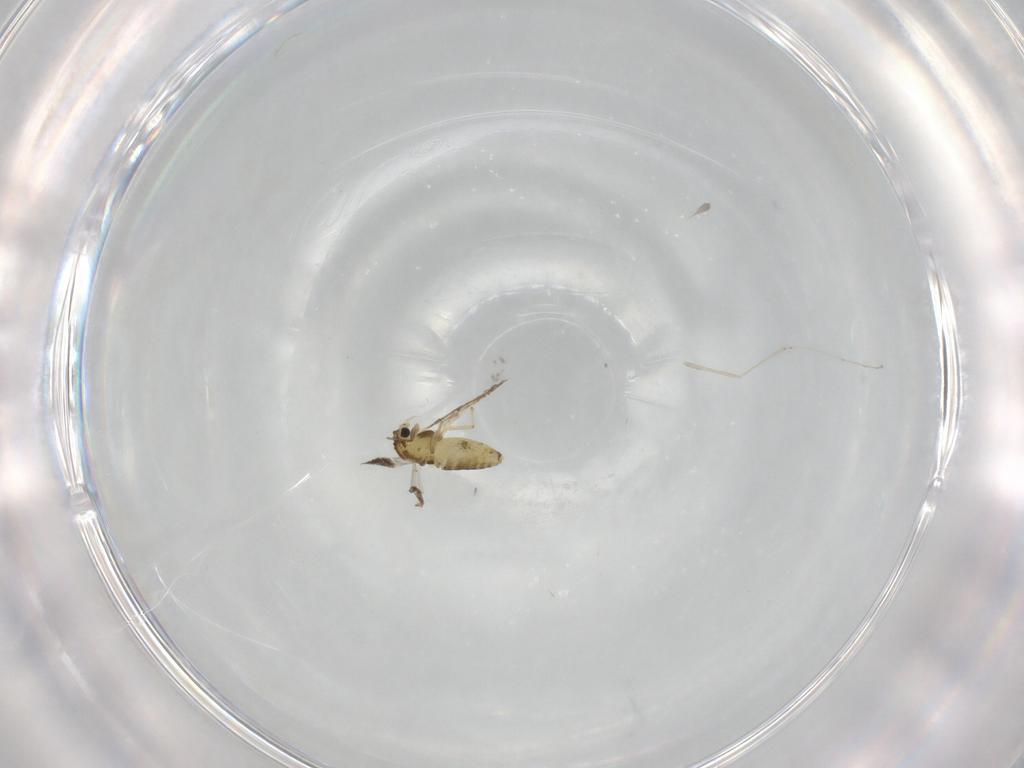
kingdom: Animalia
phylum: Arthropoda
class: Insecta
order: Diptera
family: Chironomidae
